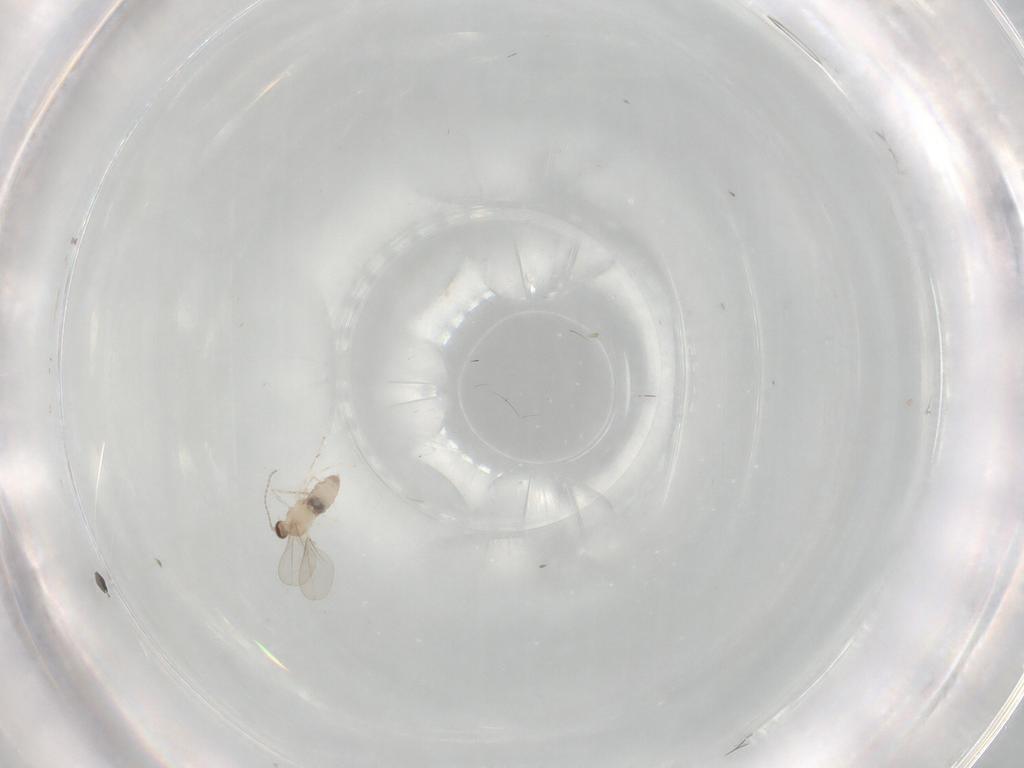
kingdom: Animalia
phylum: Arthropoda
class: Insecta
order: Diptera
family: Cecidomyiidae
